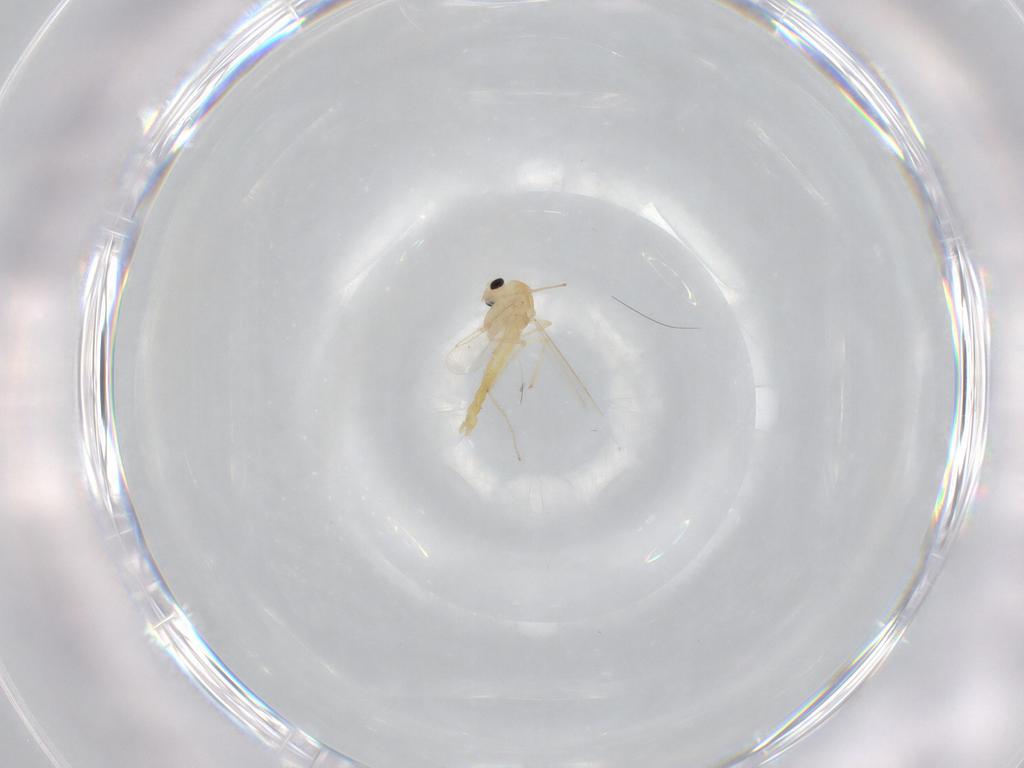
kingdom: Animalia
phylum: Arthropoda
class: Insecta
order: Diptera
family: Chironomidae
